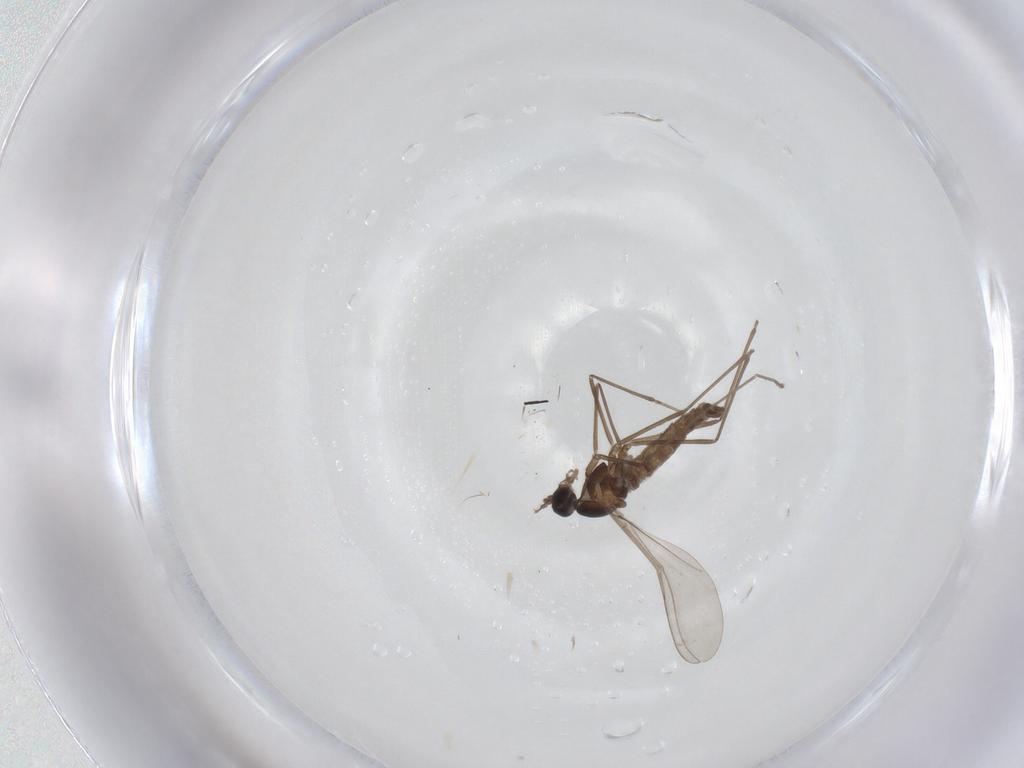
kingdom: Animalia
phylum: Arthropoda
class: Insecta
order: Diptera
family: Cecidomyiidae
